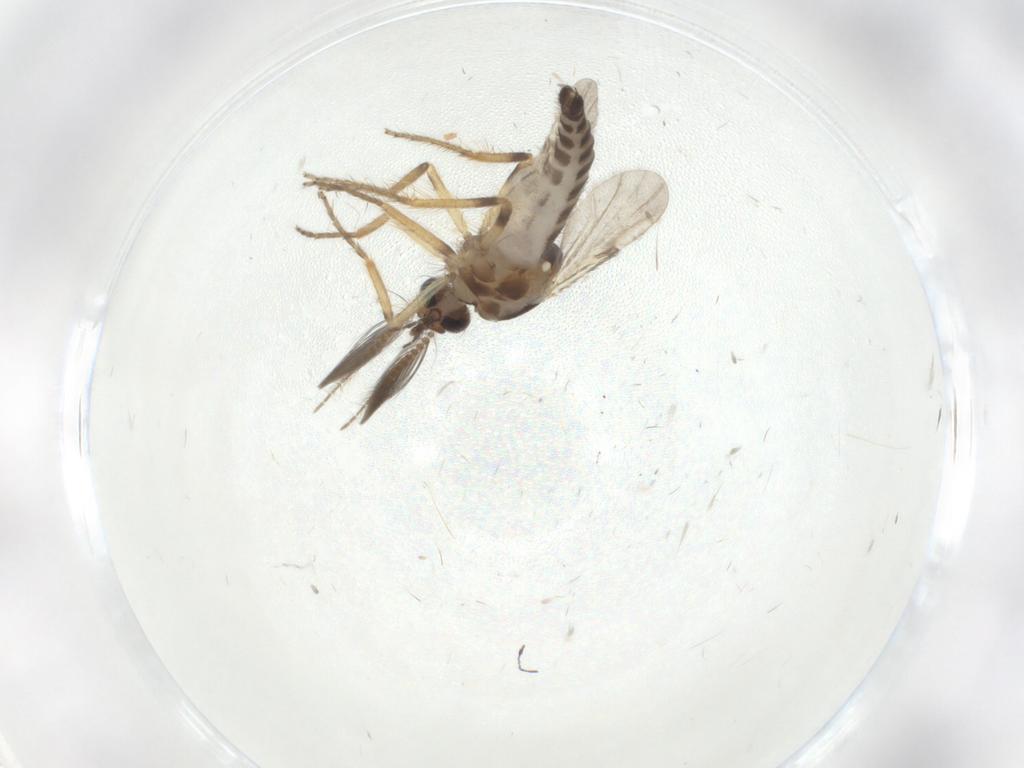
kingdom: Animalia
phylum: Arthropoda
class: Insecta
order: Diptera
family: Ceratopogonidae
